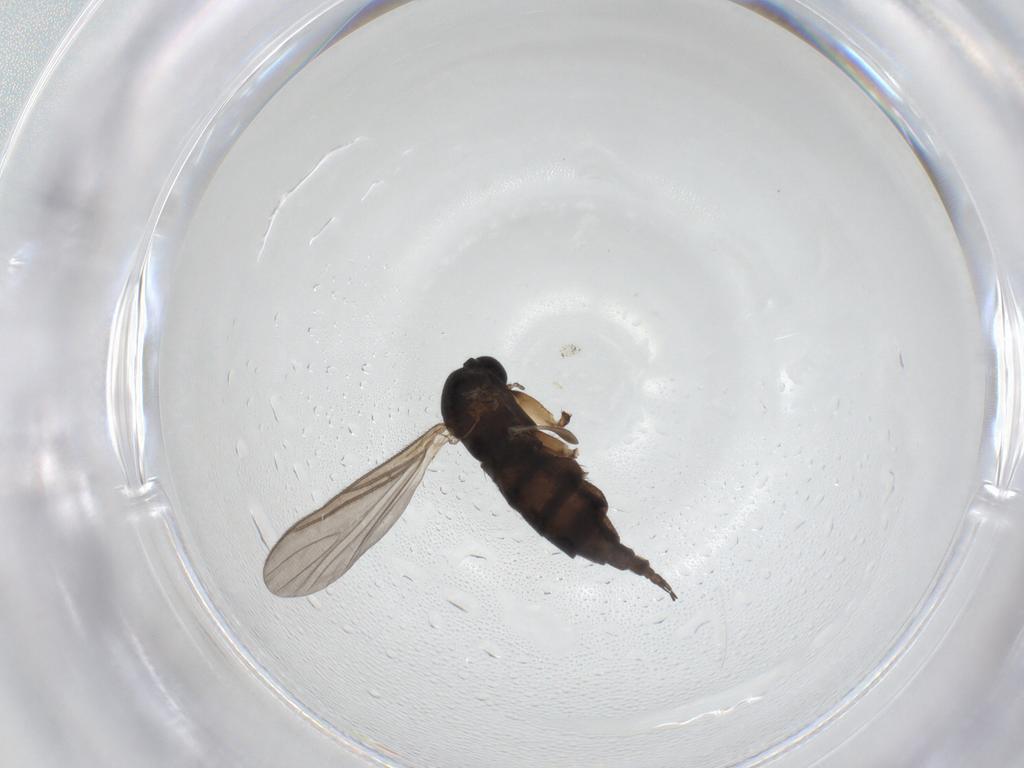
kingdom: Animalia
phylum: Arthropoda
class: Insecta
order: Diptera
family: Sciaridae
